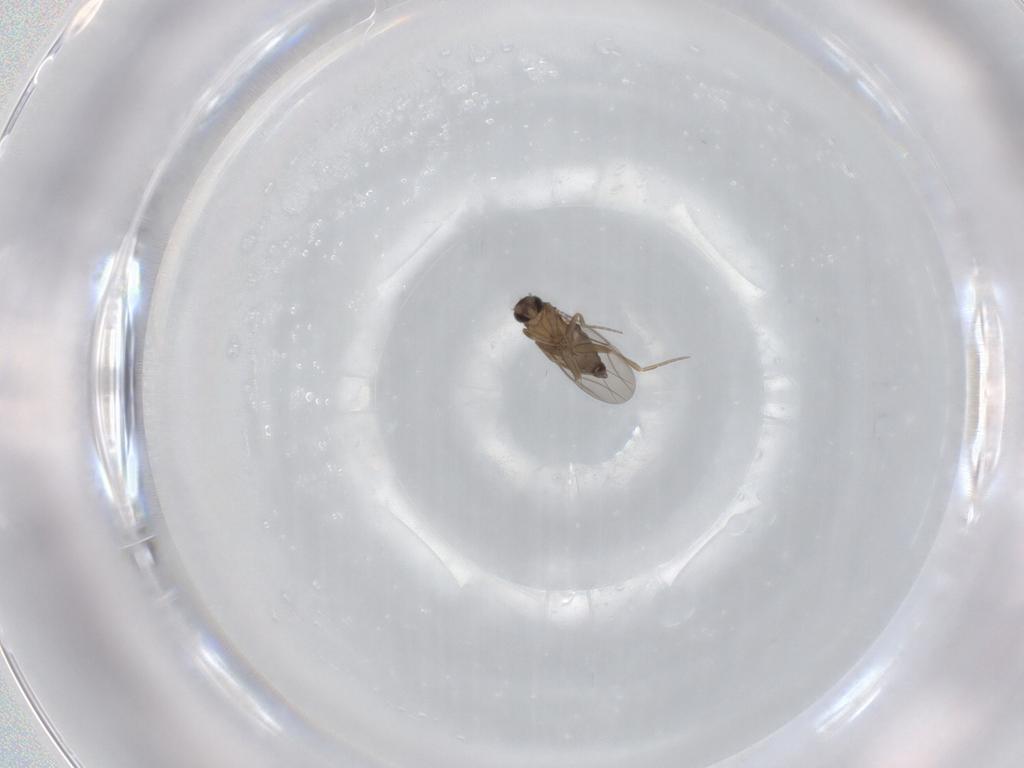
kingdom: Animalia
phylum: Arthropoda
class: Insecta
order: Diptera
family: Phoridae
